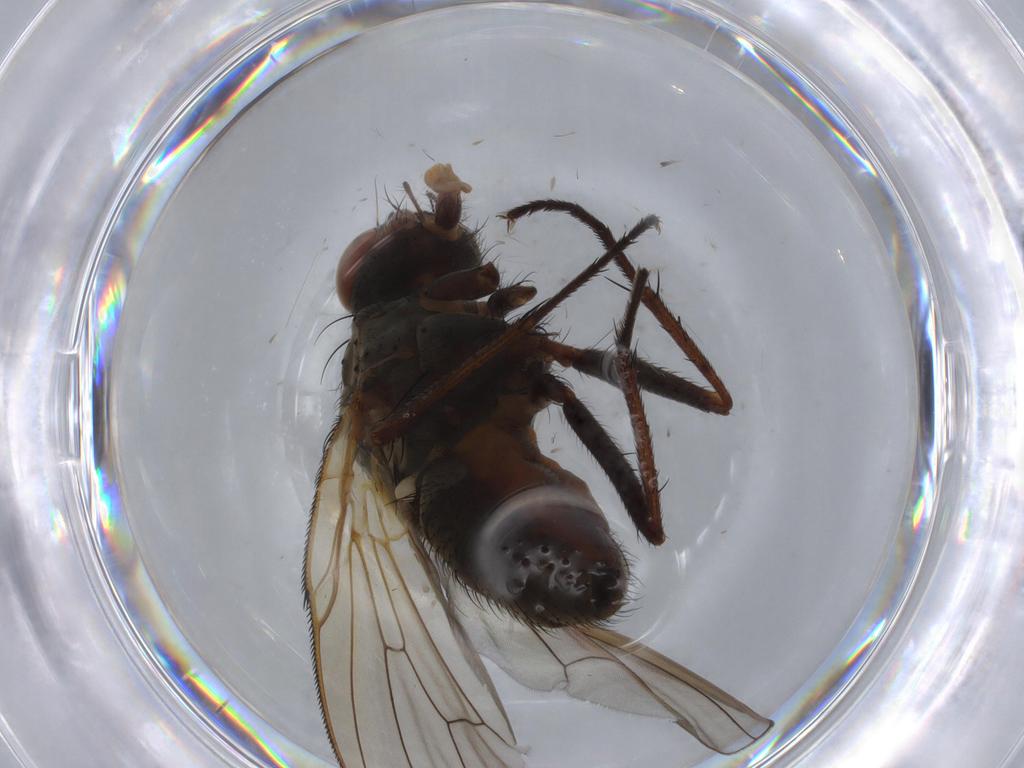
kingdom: Animalia
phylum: Arthropoda
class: Insecta
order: Diptera
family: Anthomyiidae
